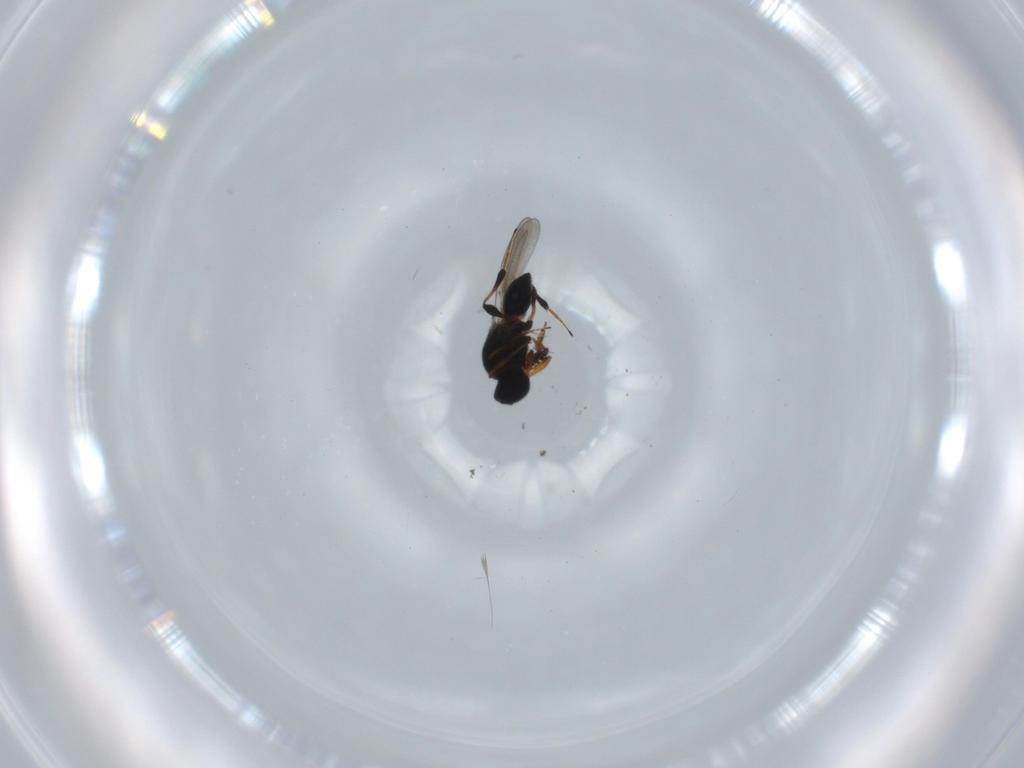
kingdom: Animalia
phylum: Arthropoda
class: Insecta
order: Hymenoptera
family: Platygastridae
